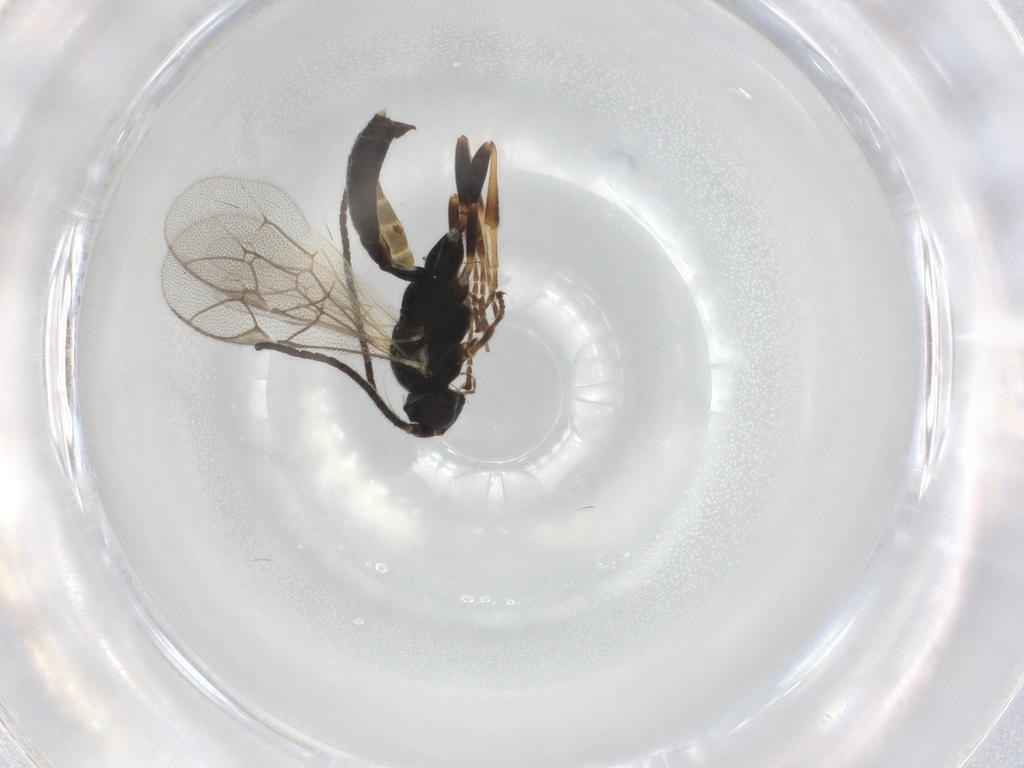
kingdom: Animalia
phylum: Arthropoda
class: Insecta
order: Hymenoptera
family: Ichneumonidae
